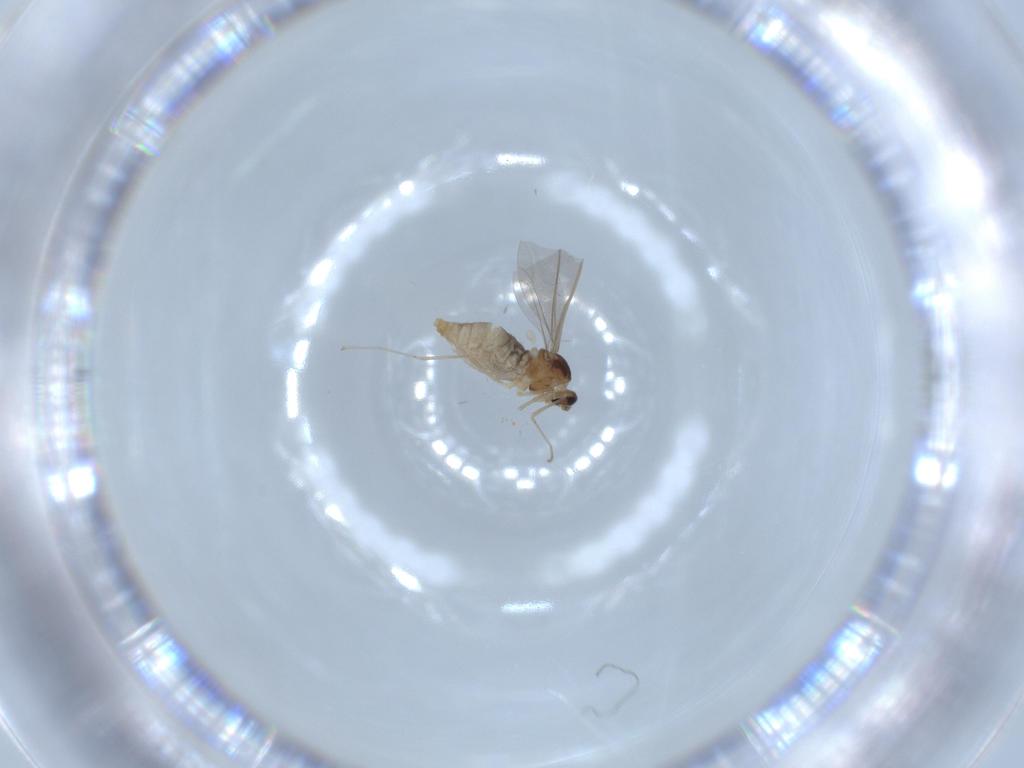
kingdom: Animalia
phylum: Arthropoda
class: Insecta
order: Diptera
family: Cecidomyiidae
